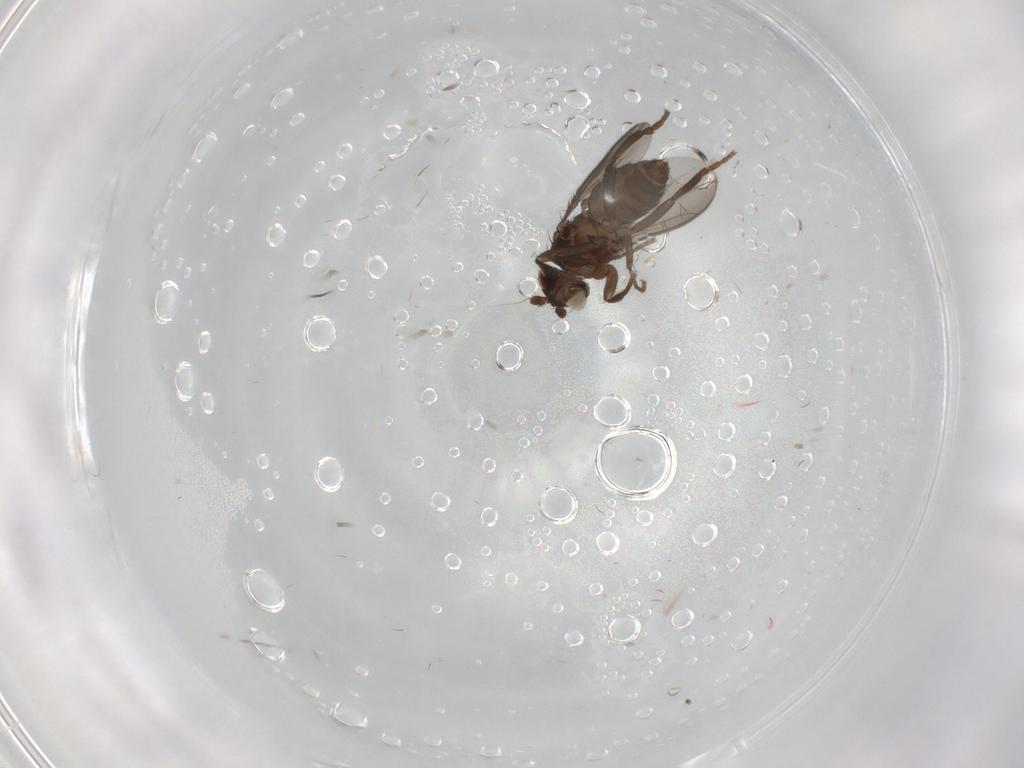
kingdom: Animalia
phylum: Arthropoda
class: Insecta
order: Diptera
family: Sphaeroceridae
